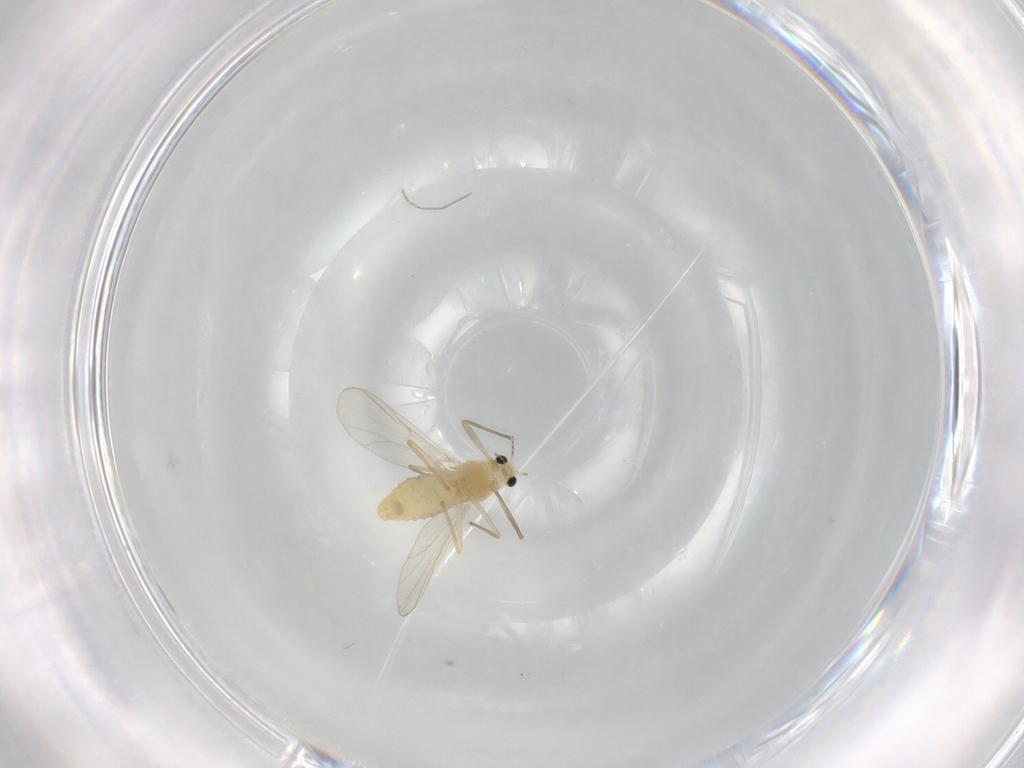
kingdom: Animalia
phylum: Arthropoda
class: Insecta
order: Diptera
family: Chironomidae
